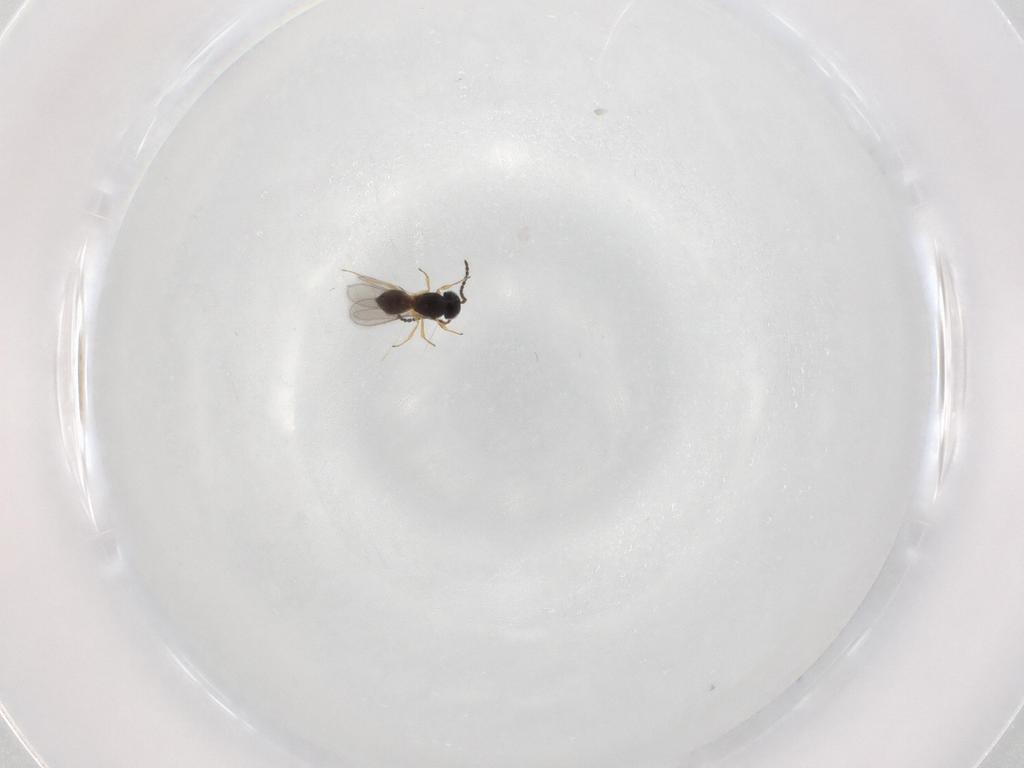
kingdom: Animalia
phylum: Arthropoda
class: Insecta
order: Hymenoptera
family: Scelionidae
